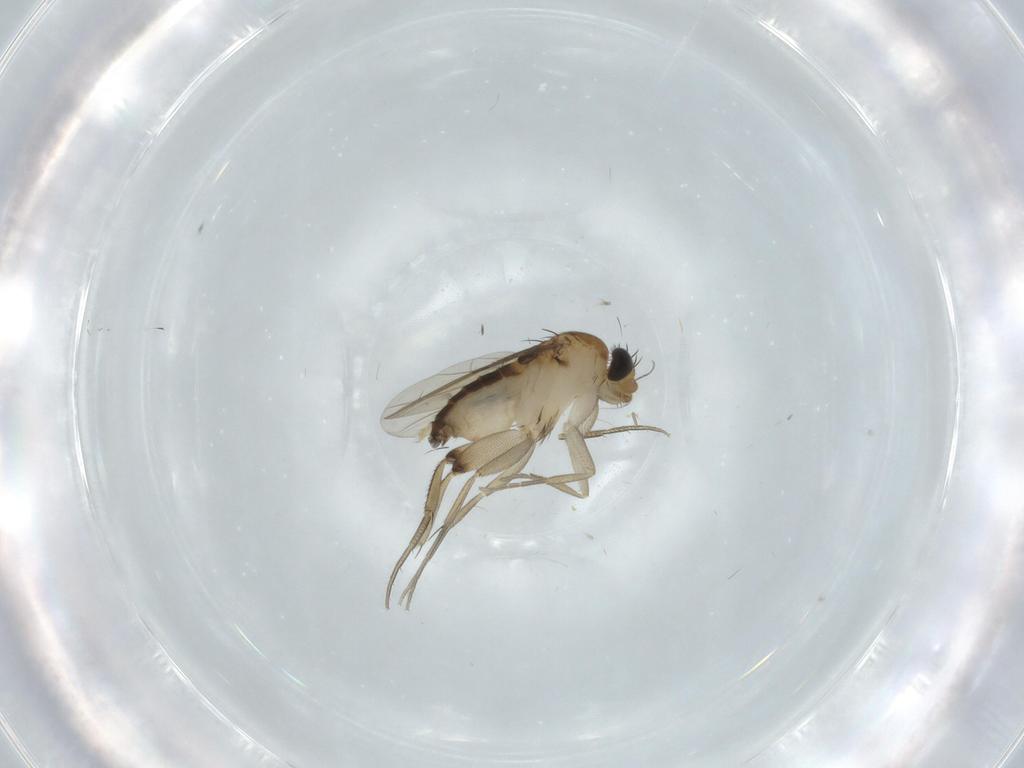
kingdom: Animalia
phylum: Arthropoda
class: Insecta
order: Diptera
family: Phoridae
